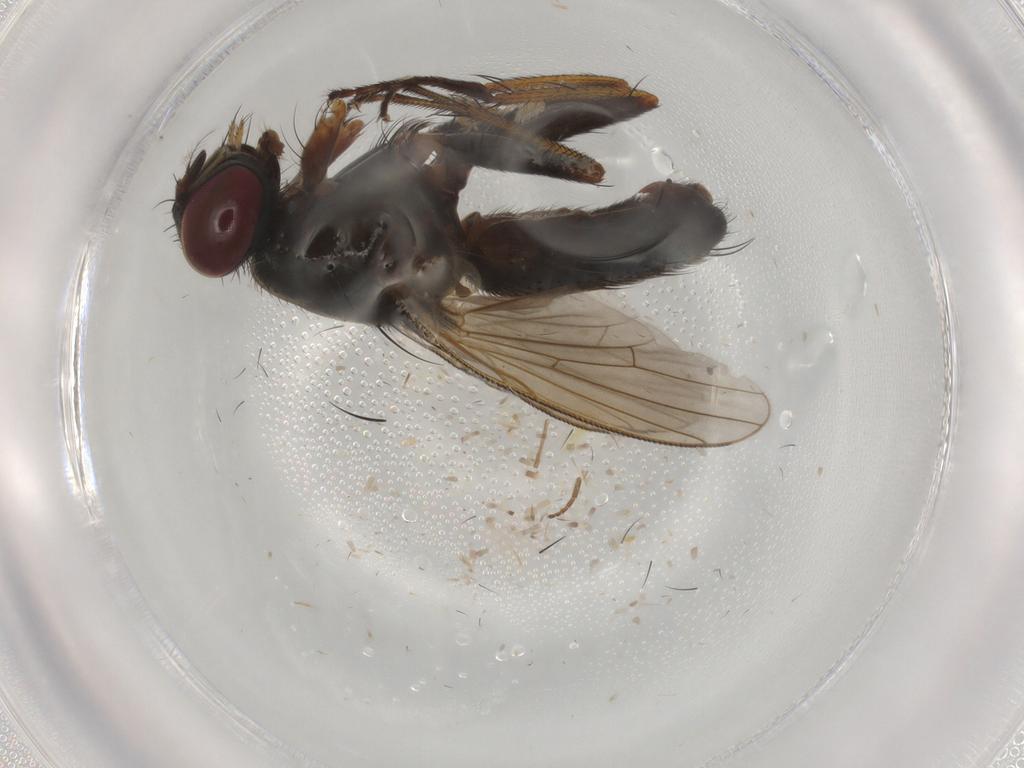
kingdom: Animalia
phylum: Arthropoda
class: Insecta
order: Diptera
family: Muscidae
